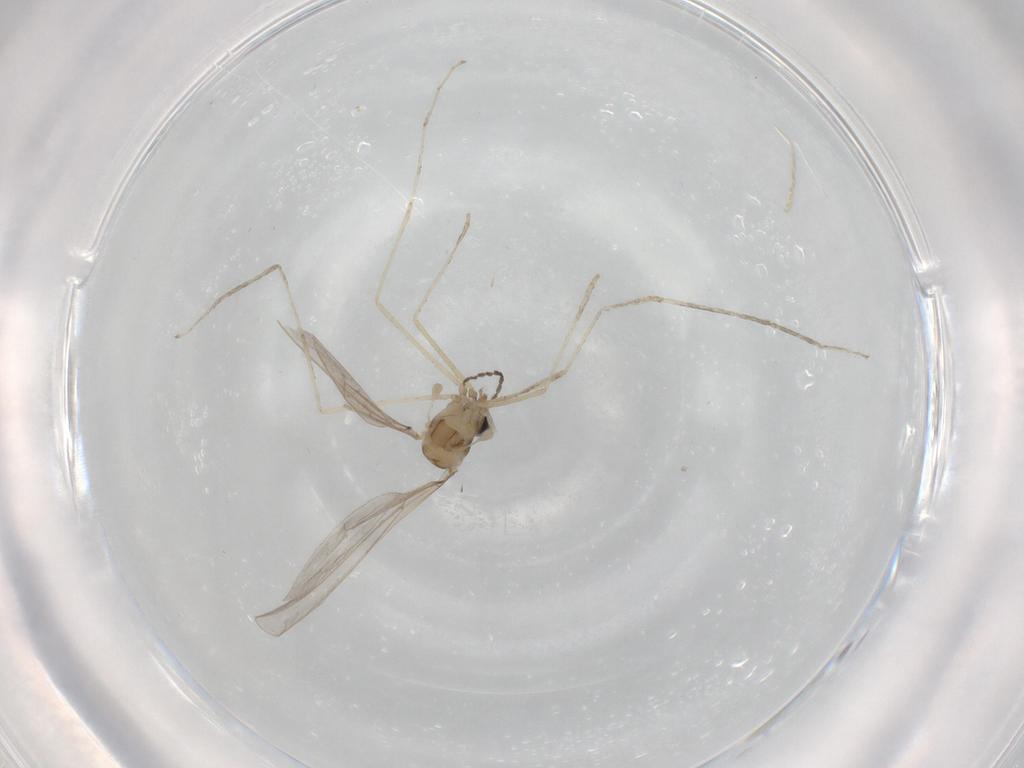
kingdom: Animalia
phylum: Arthropoda
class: Insecta
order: Diptera
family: Cecidomyiidae
